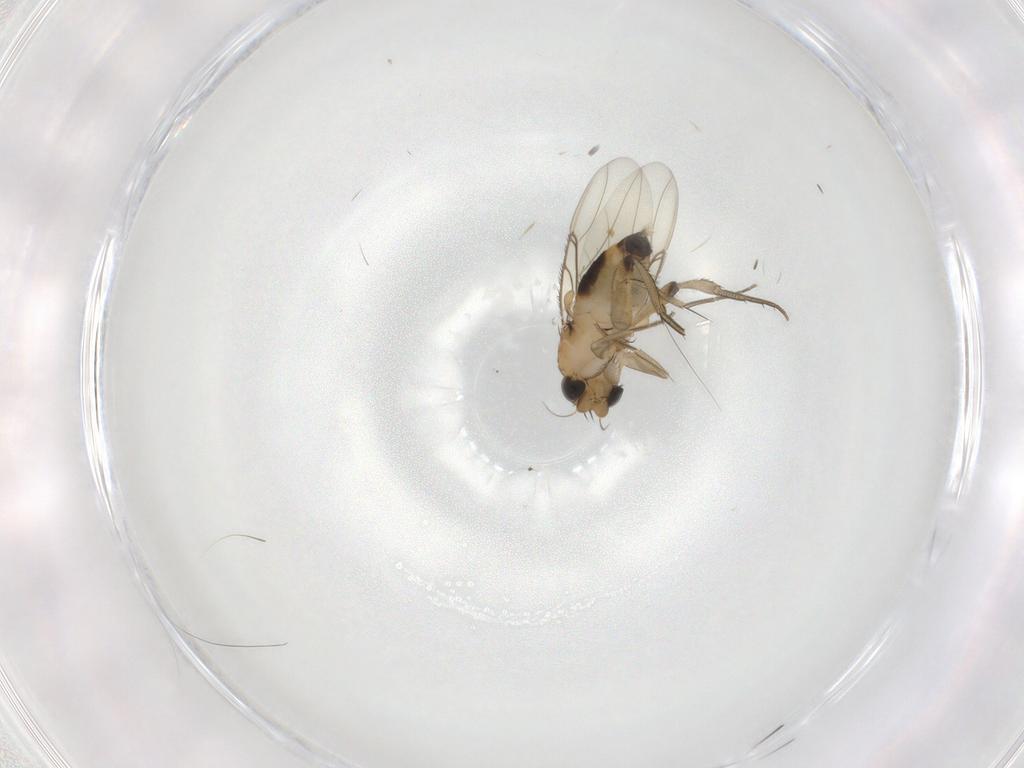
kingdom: Animalia
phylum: Arthropoda
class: Insecta
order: Diptera
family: Phoridae
